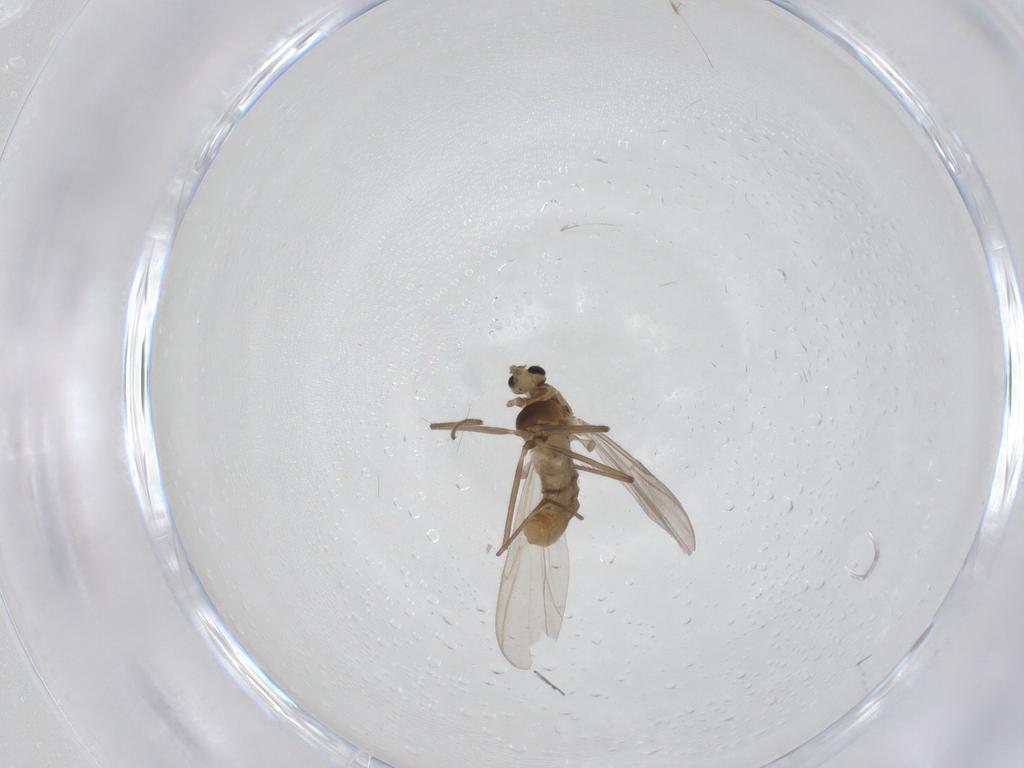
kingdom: Animalia
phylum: Arthropoda
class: Insecta
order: Diptera
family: Chironomidae
